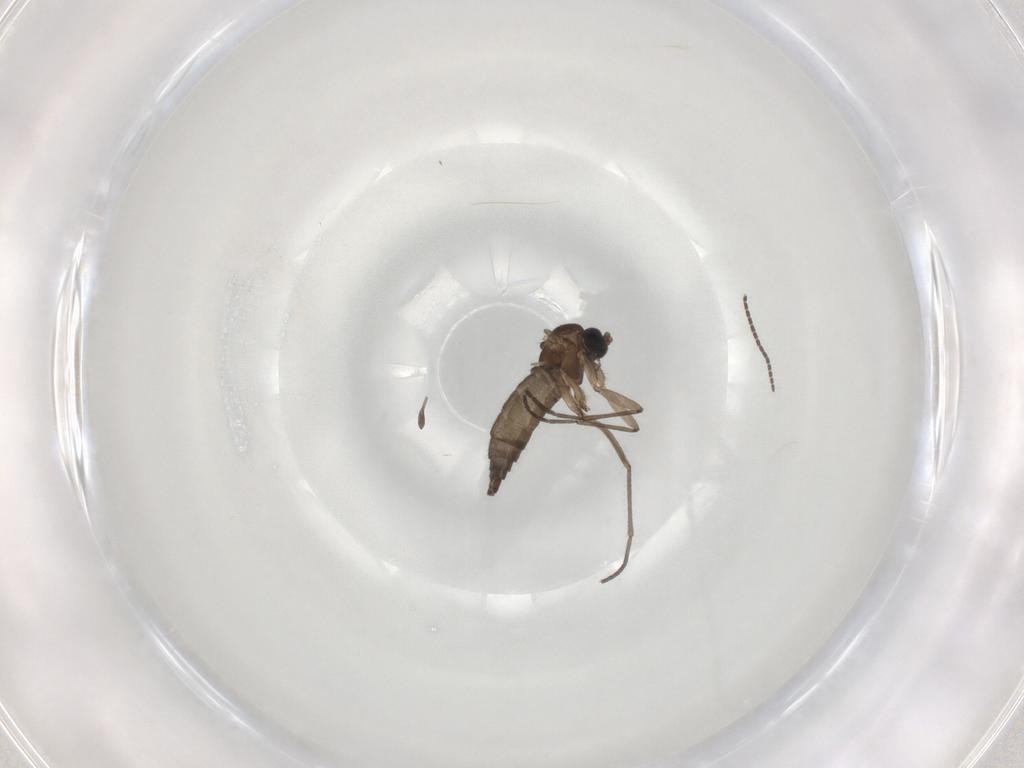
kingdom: Animalia
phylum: Arthropoda
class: Insecta
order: Diptera
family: Sciaridae
